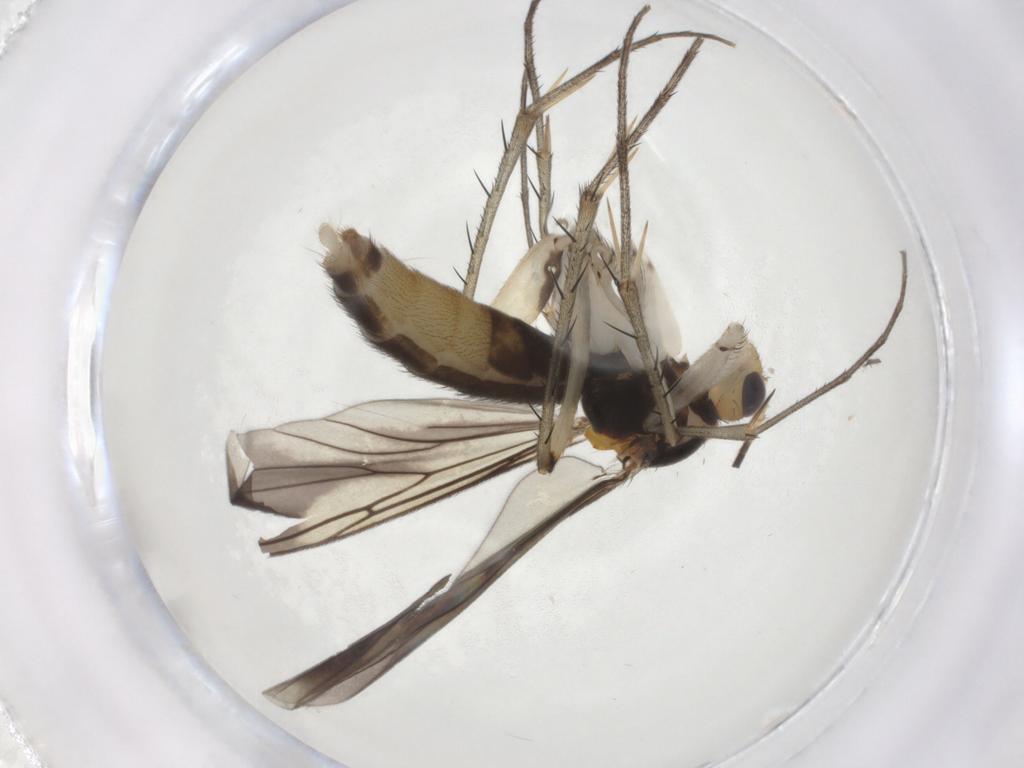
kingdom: Animalia
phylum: Arthropoda
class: Insecta
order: Diptera
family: Mycetophilidae
